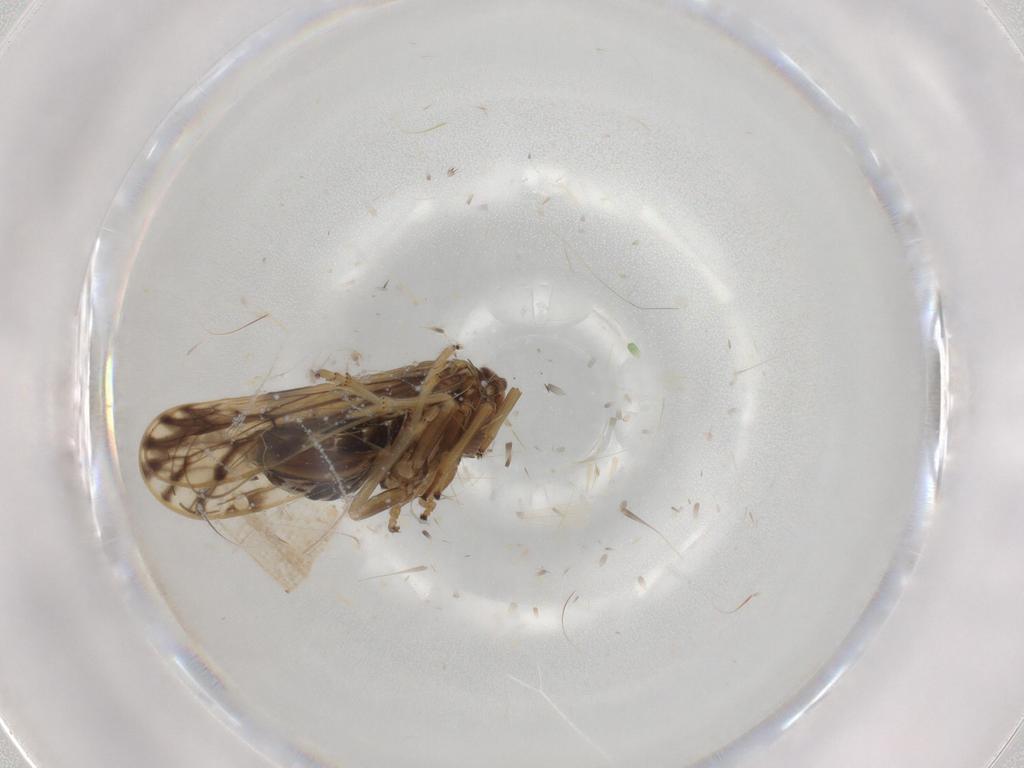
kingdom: Animalia
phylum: Arthropoda
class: Insecta
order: Hemiptera
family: Delphacidae
